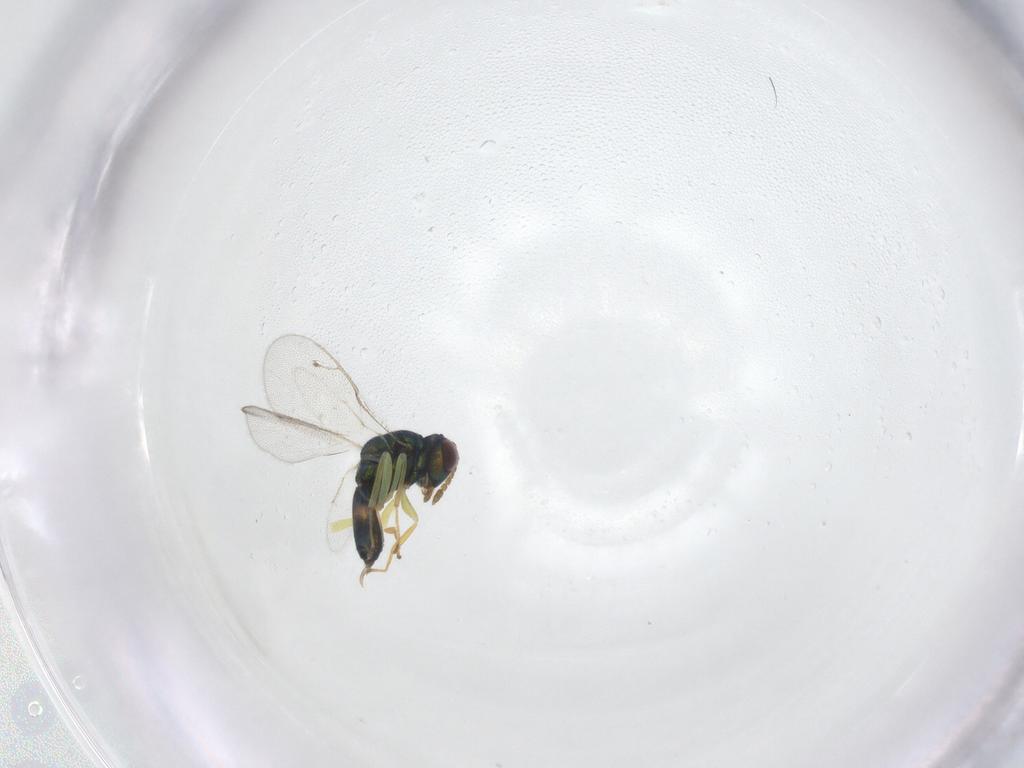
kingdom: Animalia
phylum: Arthropoda
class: Insecta
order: Hymenoptera
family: Pteromalidae
